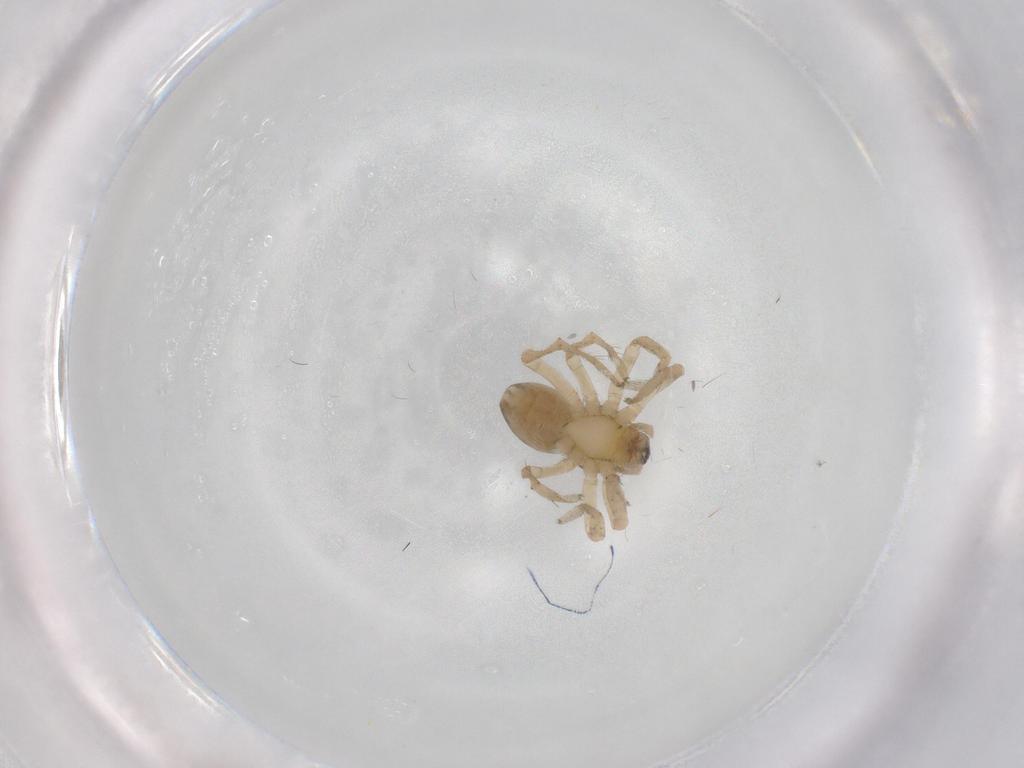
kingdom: Animalia
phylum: Arthropoda
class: Arachnida
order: Araneae
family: Anyphaenidae
